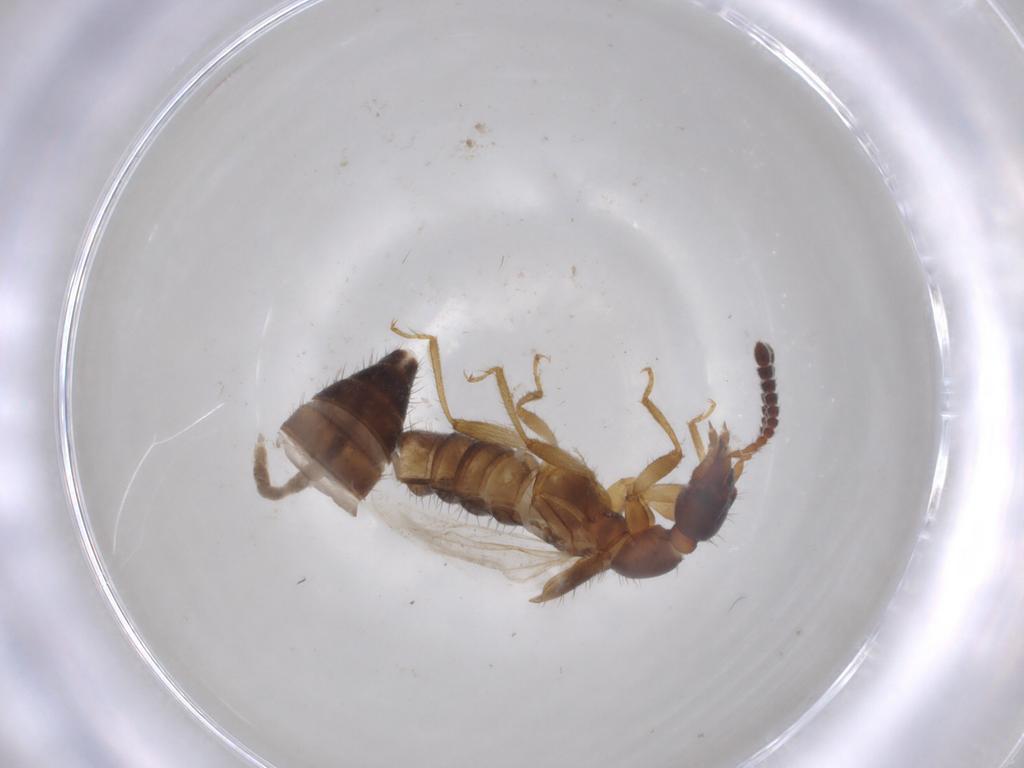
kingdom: Animalia
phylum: Arthropoda
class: Insecta
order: Coleoptera
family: Staphylinidae
